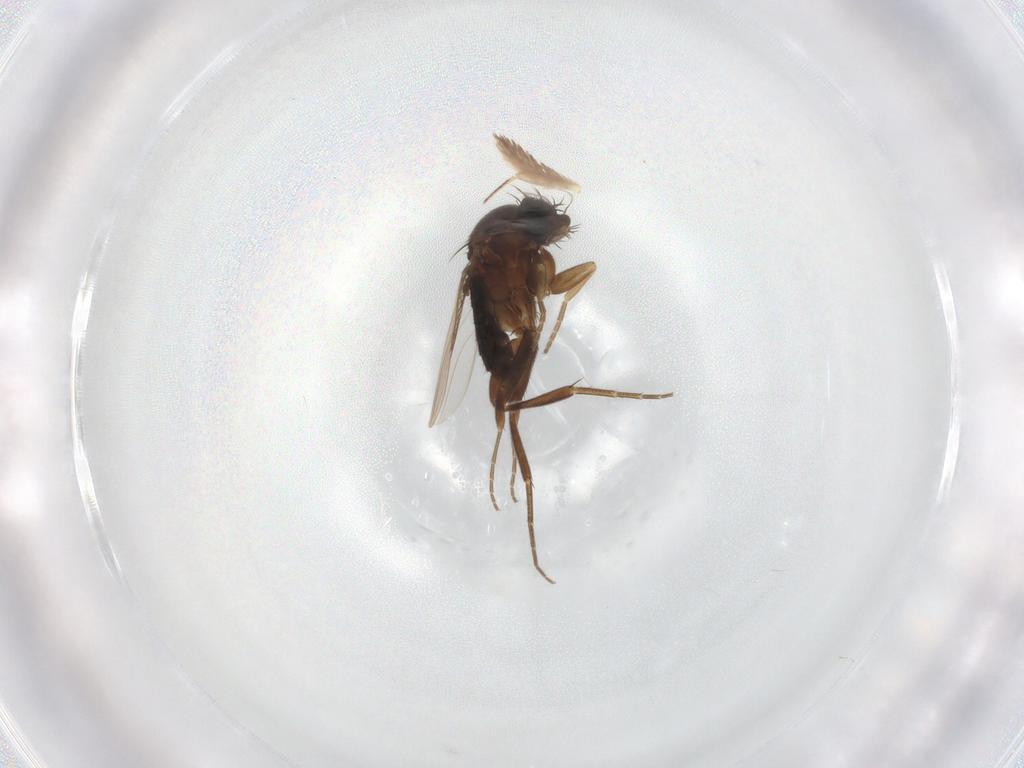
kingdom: Animalia
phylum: Arthropoda
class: Insecta
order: Diptera
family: Phoridae
